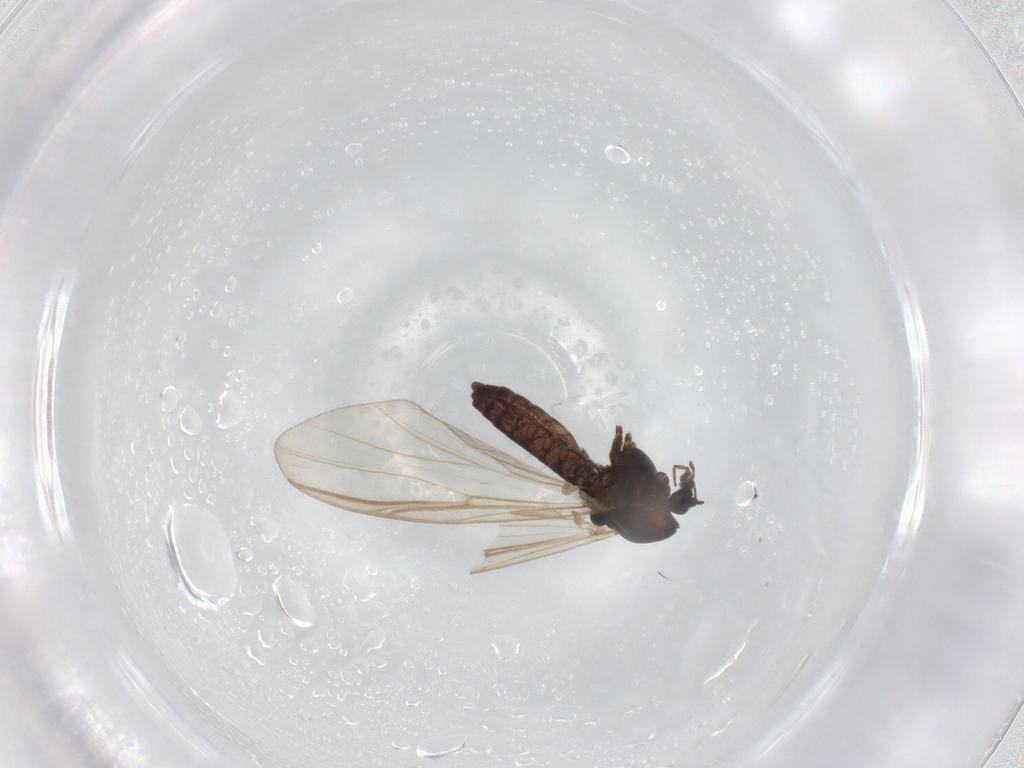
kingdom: Animalia
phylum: Arthropoda
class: Insecta
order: Diptera
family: Chironomidae
